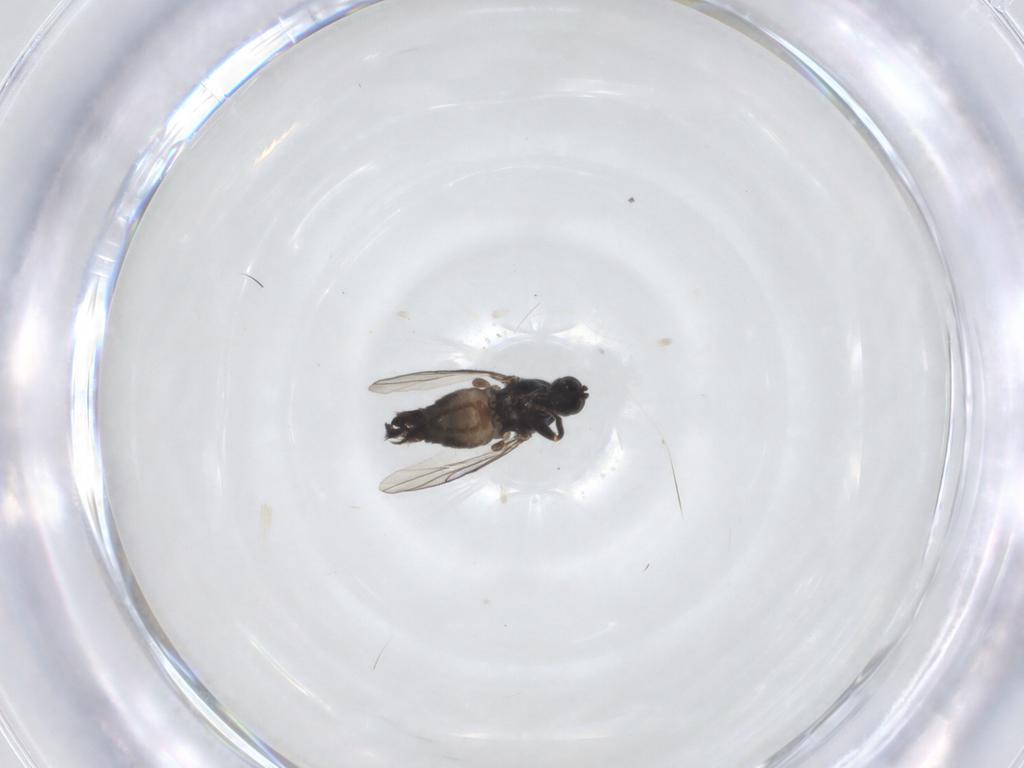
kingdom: Animalia
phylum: Arthropoda
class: Insecta
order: Diptera
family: Hybotidae
